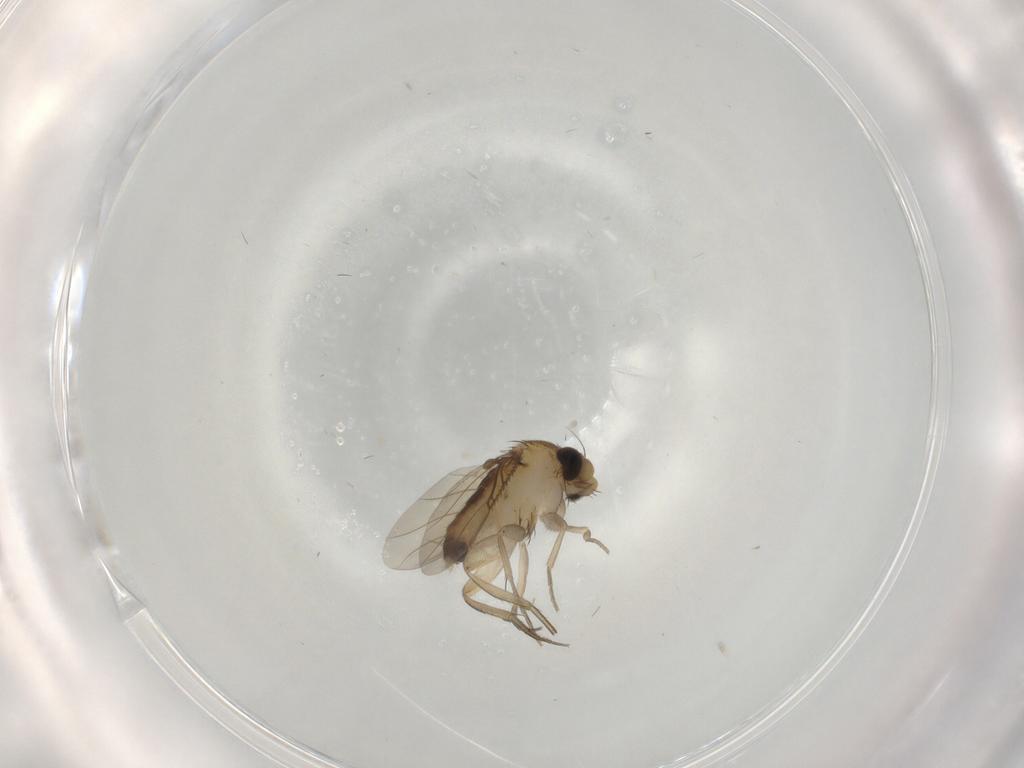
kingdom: Animalia
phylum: Arthropoda
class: Insecta
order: Diptera
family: Phoridae
